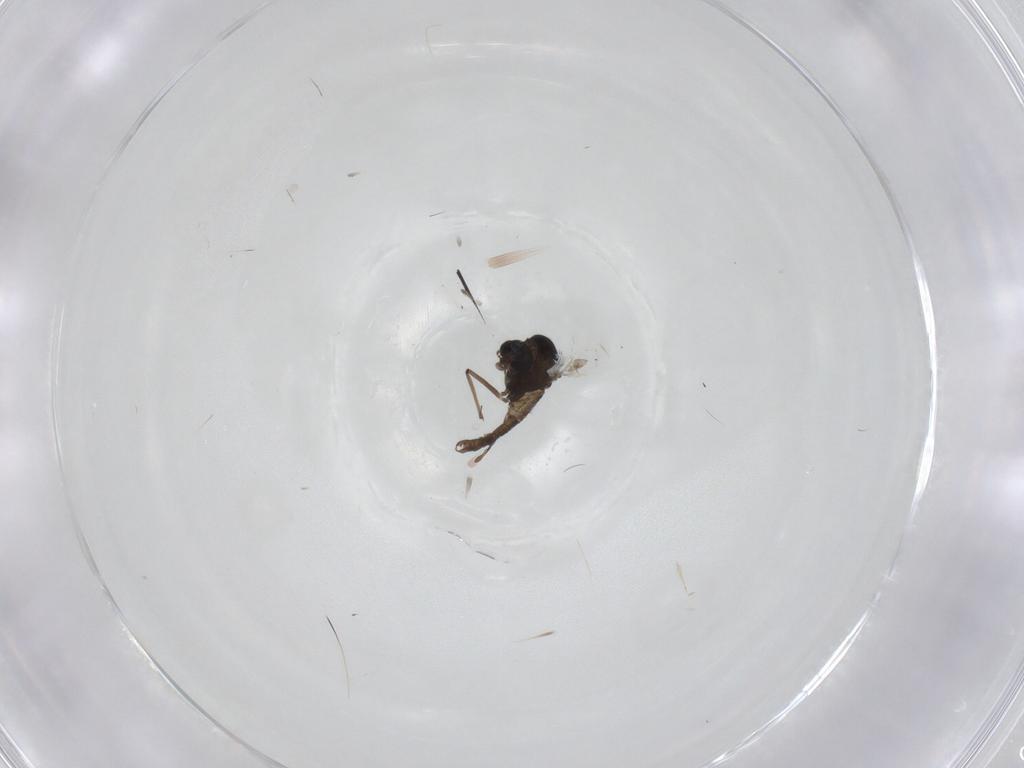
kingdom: Animalia
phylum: Arthropoda
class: Insecta
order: Diptera
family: Chironomidae
